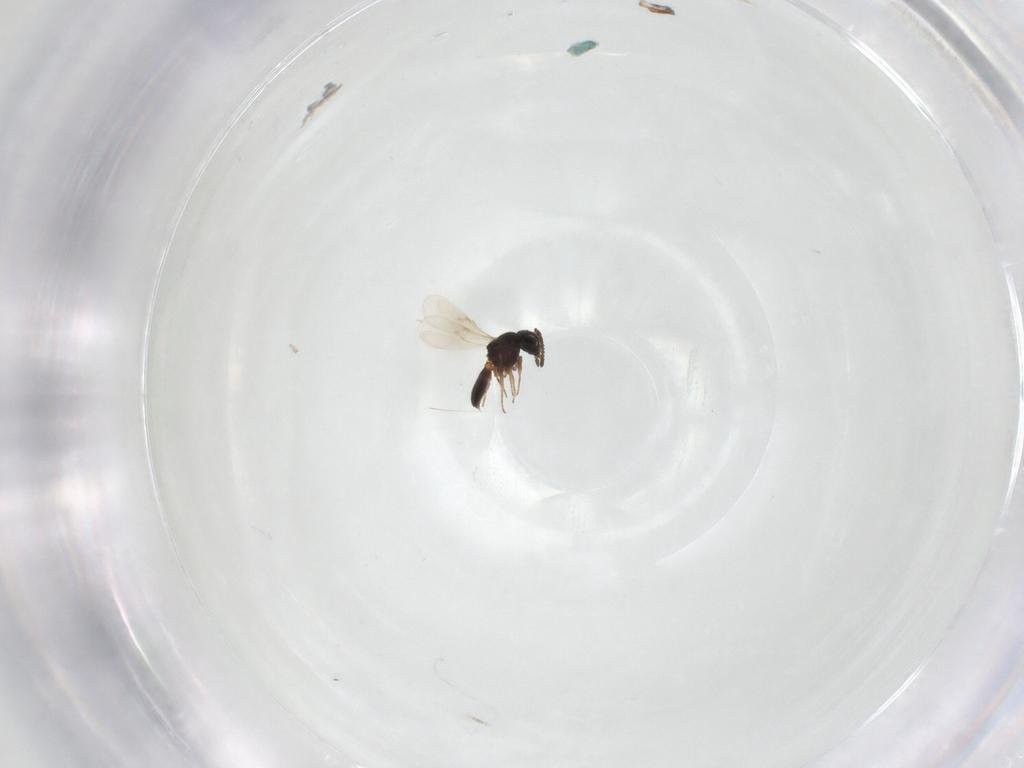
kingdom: Animalia
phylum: Arthropoda
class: Insecta
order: Hymenoptera
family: Scelionidae
